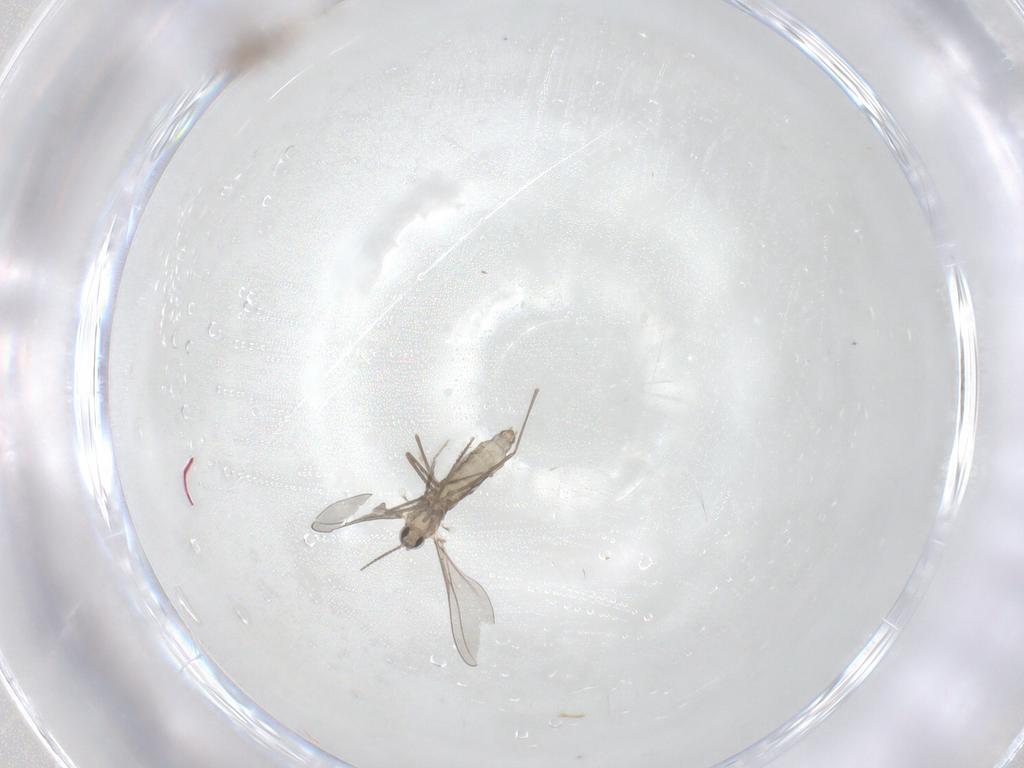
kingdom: Animalia
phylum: Arthropoda
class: Insecta
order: Diptera
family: Cecidomyiidae
